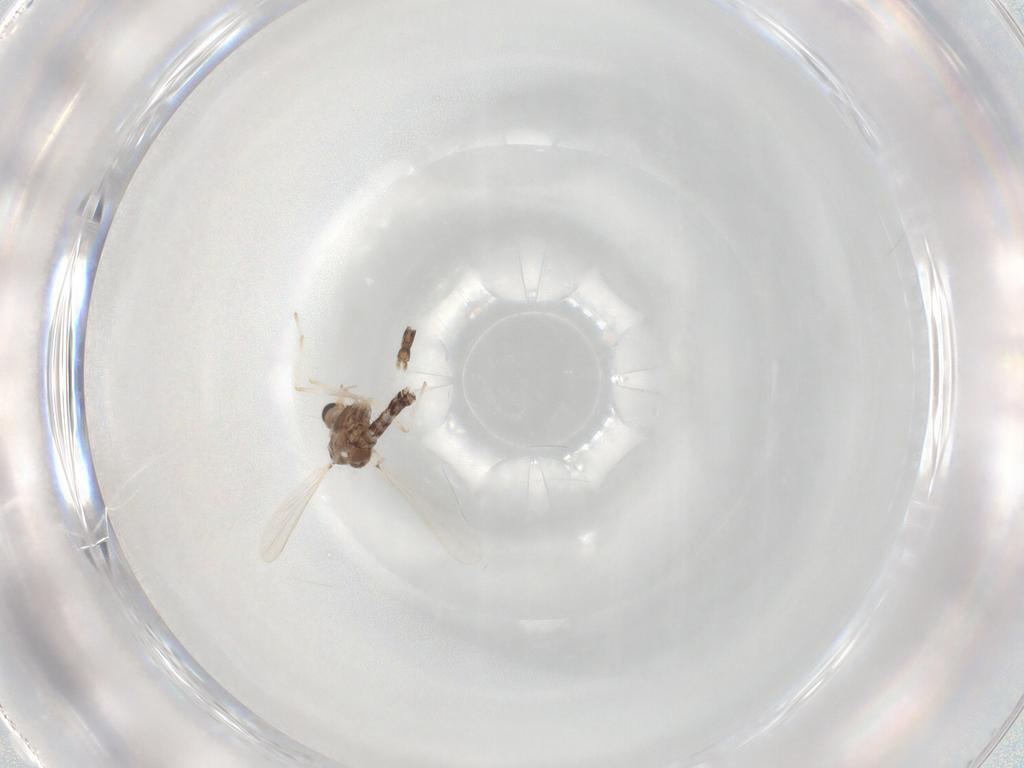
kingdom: Animalia
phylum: Arthropoda
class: Insecta
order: Diptera
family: Chironomidae
